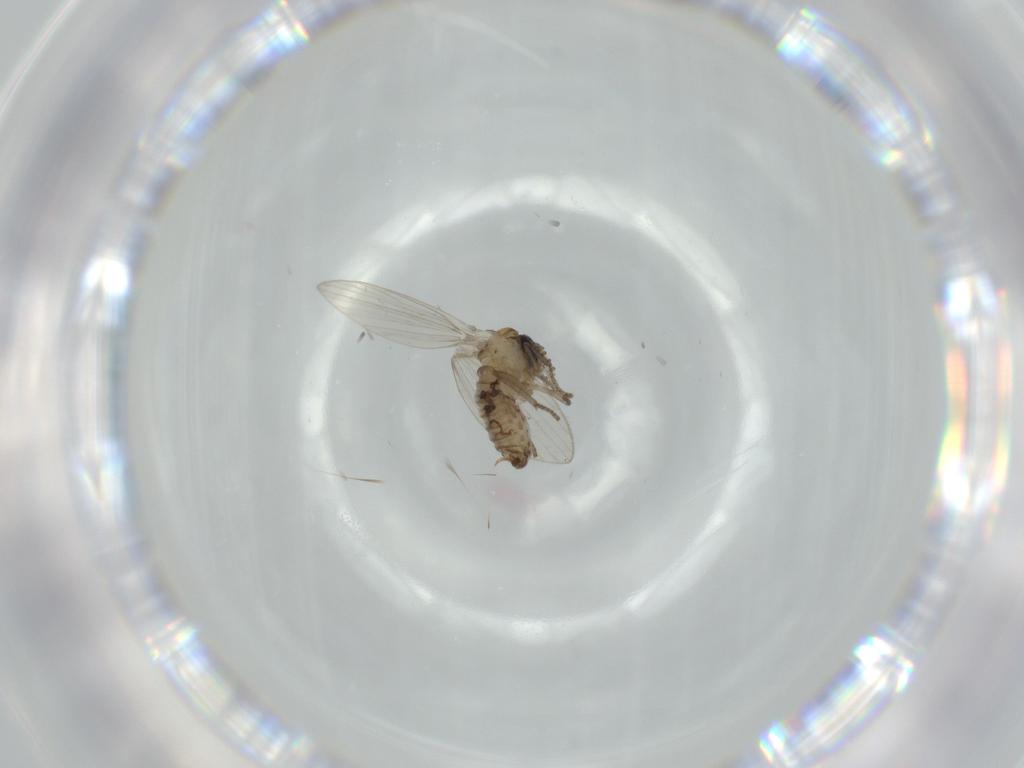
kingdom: Animalia
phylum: Arthropoda
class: Insecta
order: Diptera
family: Psychodidae
